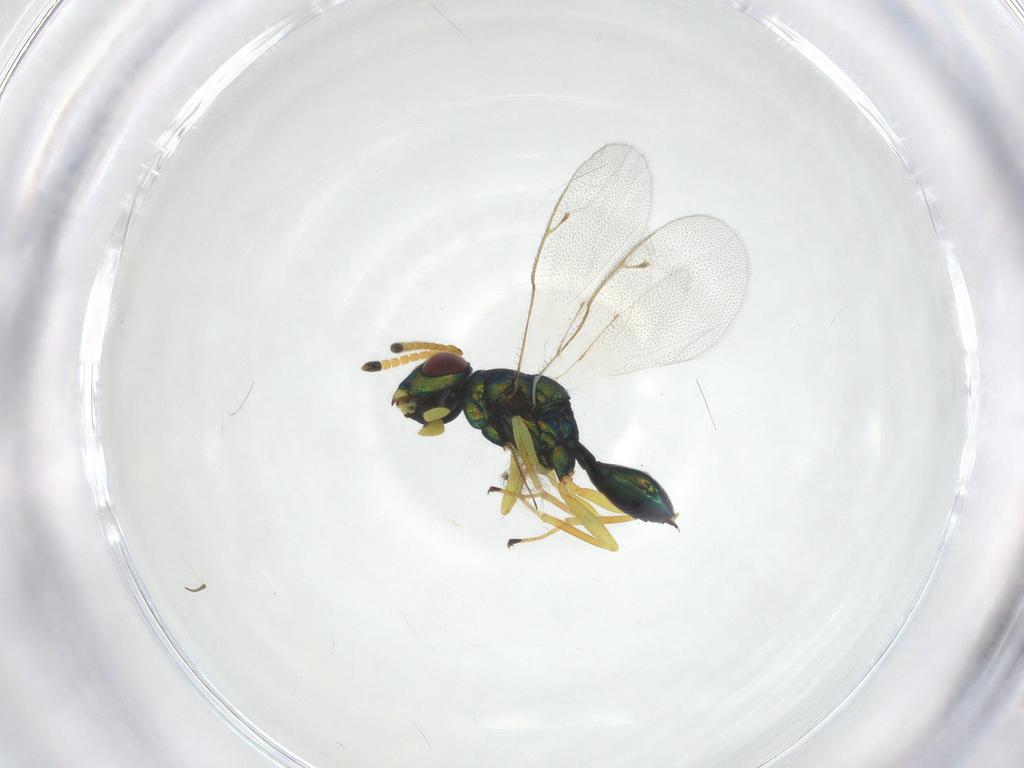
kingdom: Animalia
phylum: Arthropoda
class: Insecta
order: Hymenoptera
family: Pteromalidae
